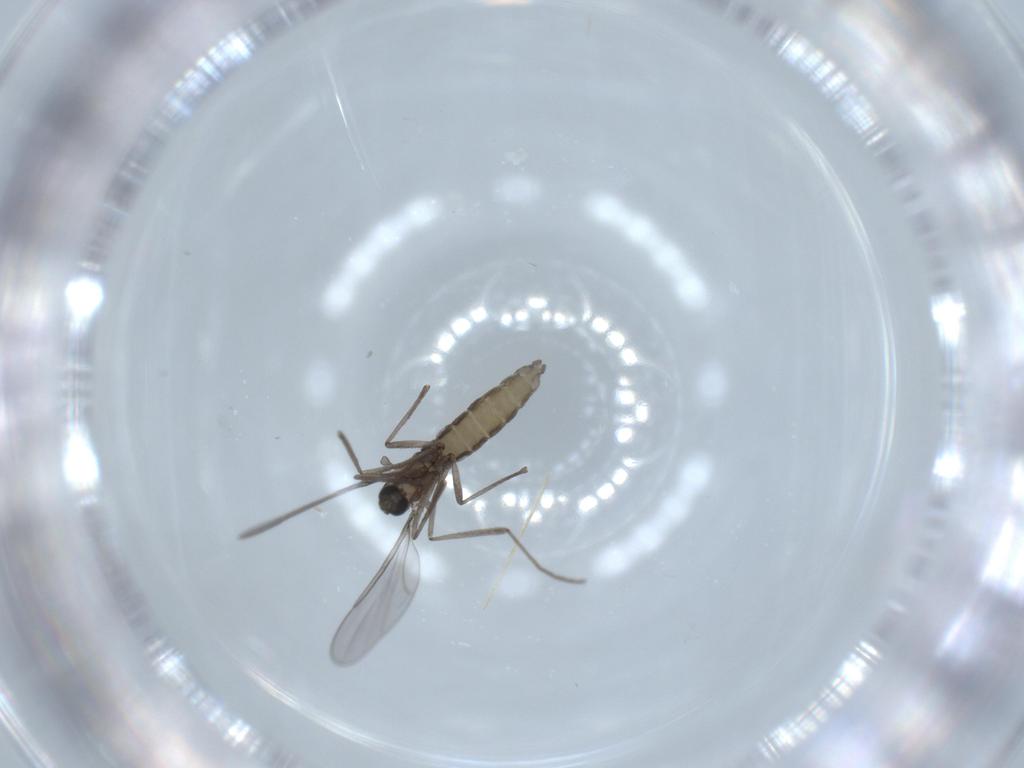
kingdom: Animalia
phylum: Arthropoda
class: Insecta
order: Diptera
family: Cecidomyiidae
